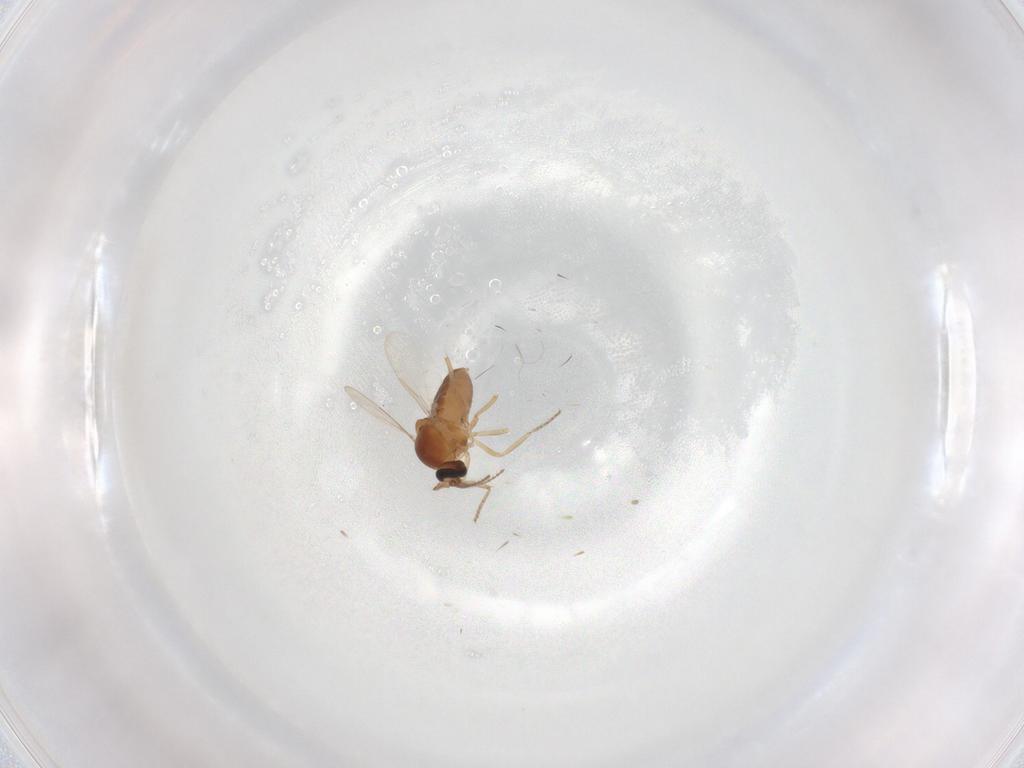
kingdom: Animalia
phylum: Arthropoda
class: Insecta
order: Diptera
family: Ceratopogonidae
